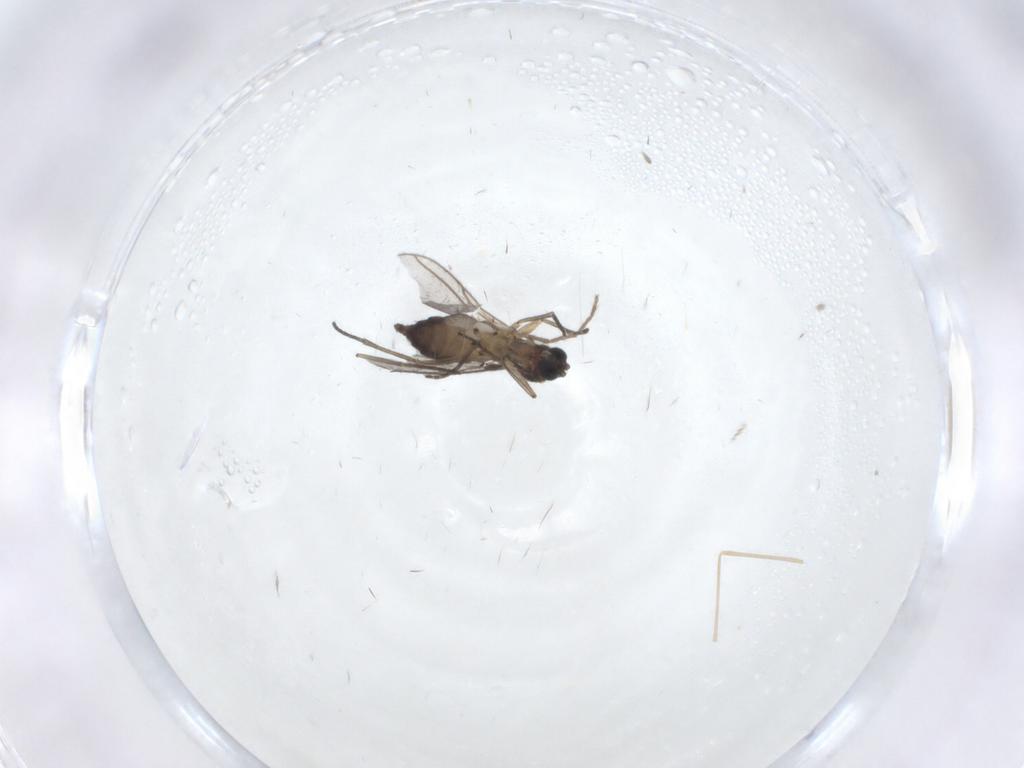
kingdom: Animalia
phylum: Arthropoda
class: Insecta
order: Diptera
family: Sciaridae
